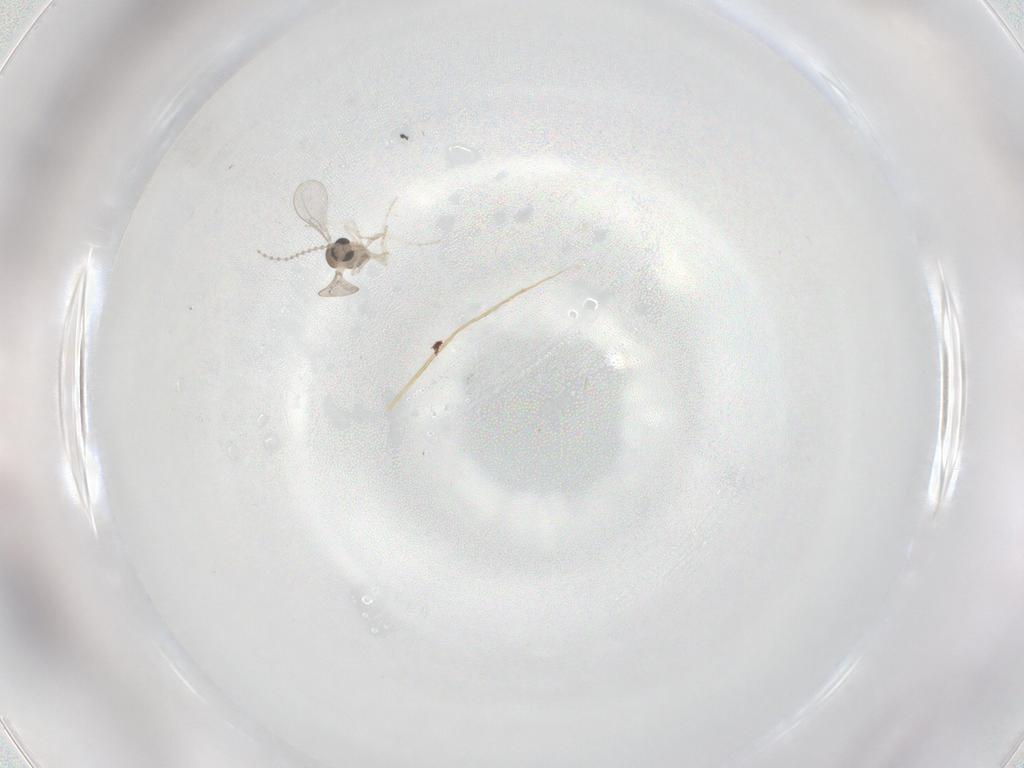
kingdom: Animalia
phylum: Arthropoda
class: Insecta
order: Diptera
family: Cecidomyiidae
